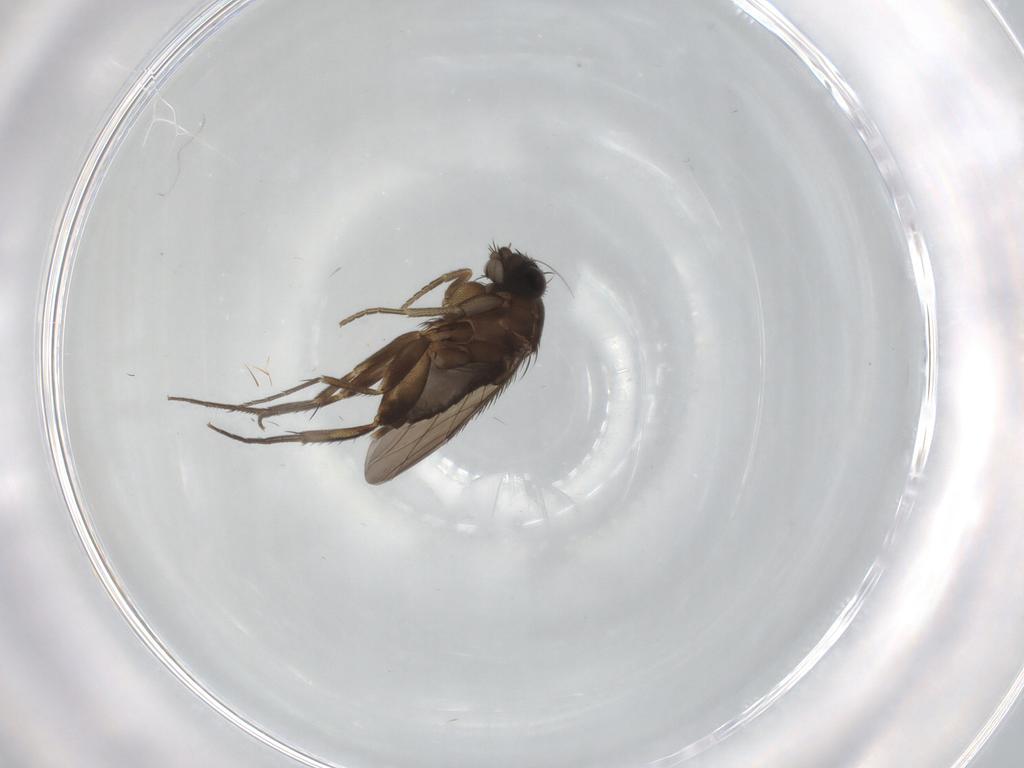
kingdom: Animalia
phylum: Arthropoda
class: Insecta
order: Diptera
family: Phoridae
